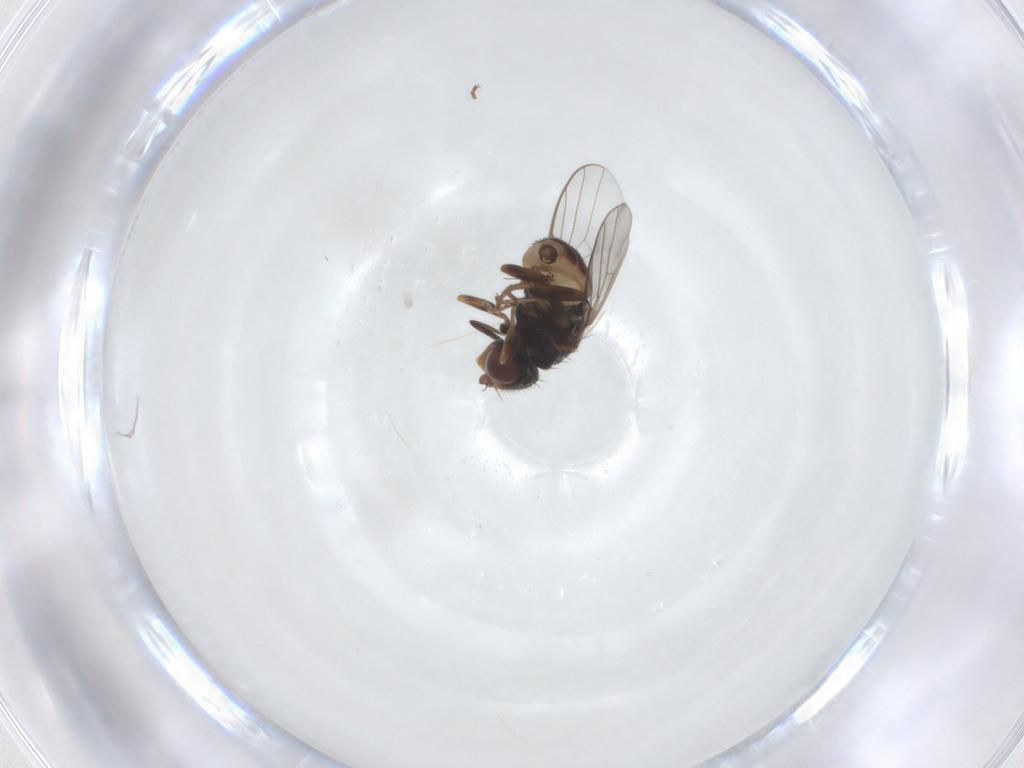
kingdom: Animalia
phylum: Arthropoda
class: Insecta
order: Diptera
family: Chloropidae
